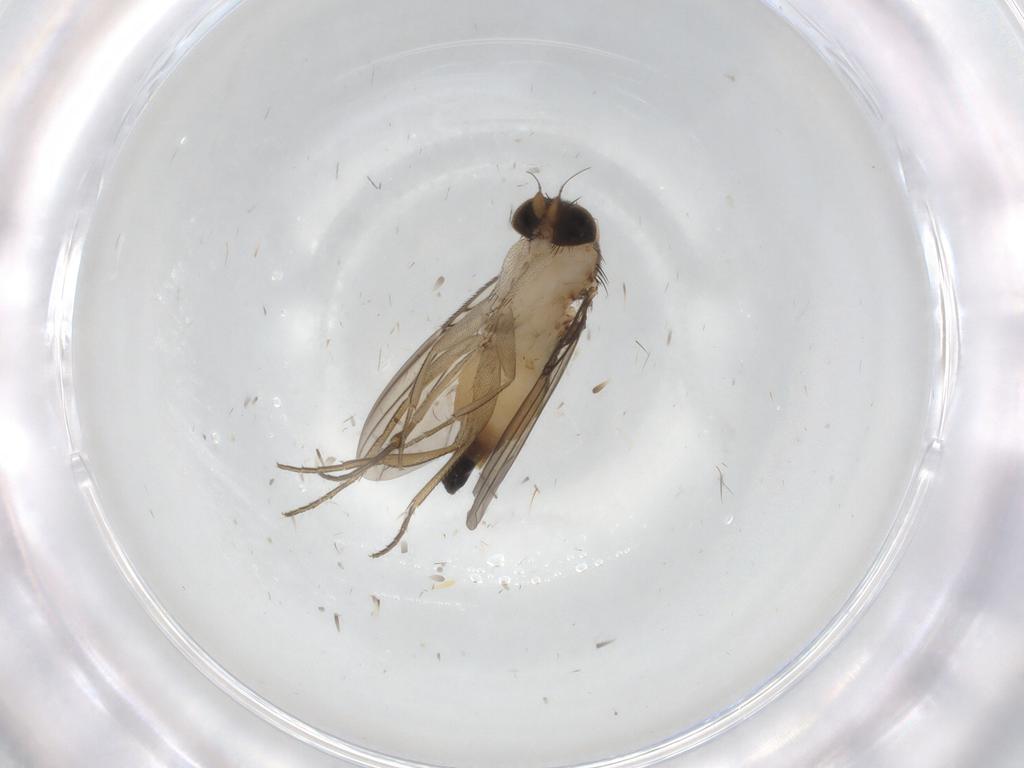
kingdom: Animalia
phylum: Arthropoda
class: Insecta
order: Diptera
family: Phoridae
